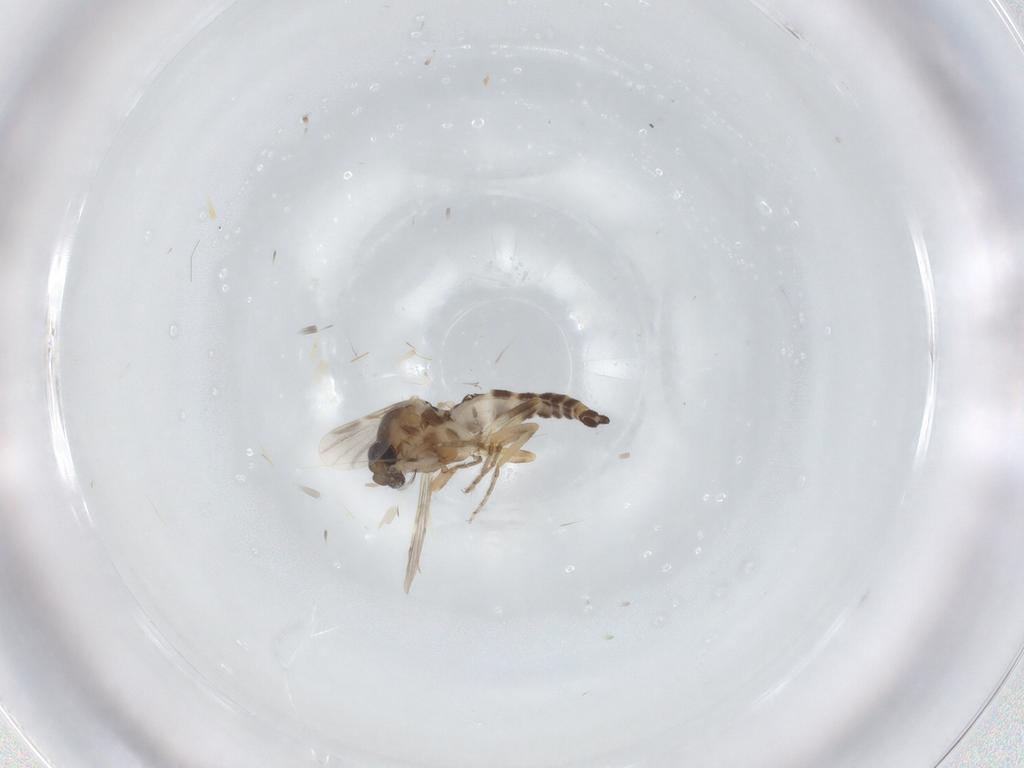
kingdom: Animalia
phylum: Arthropoda
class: Insecta
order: Diptera
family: Ceratopogonidae
